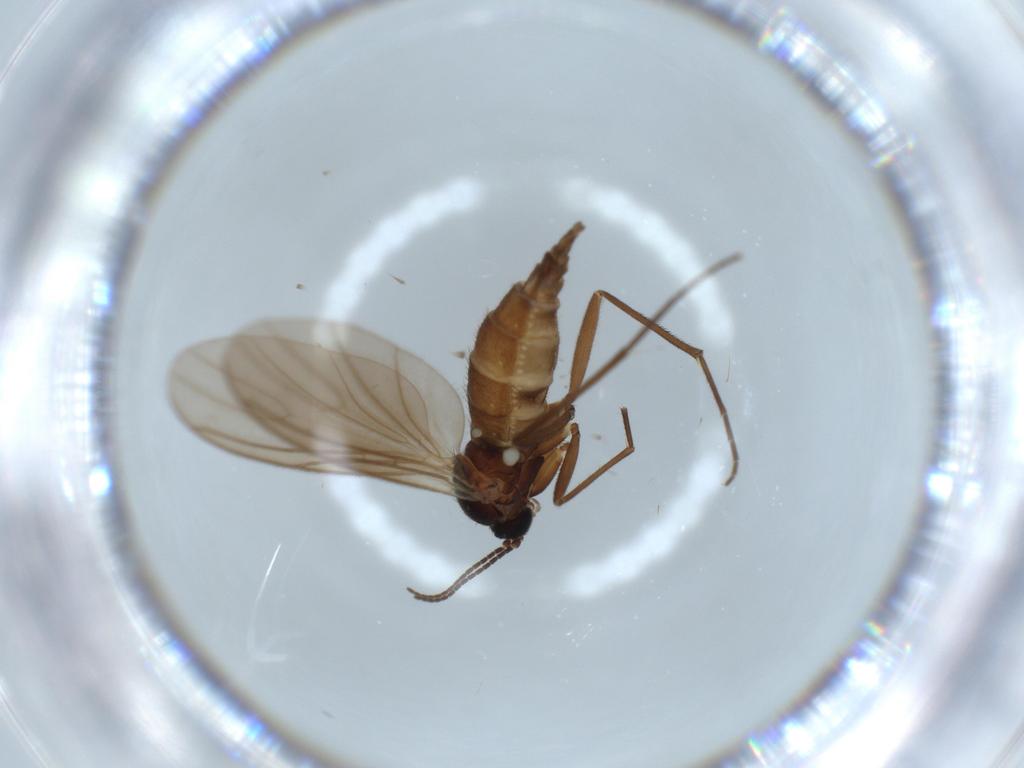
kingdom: Animalia
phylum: Arthropoda
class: Insecta
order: Diptera
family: Sciaridae
